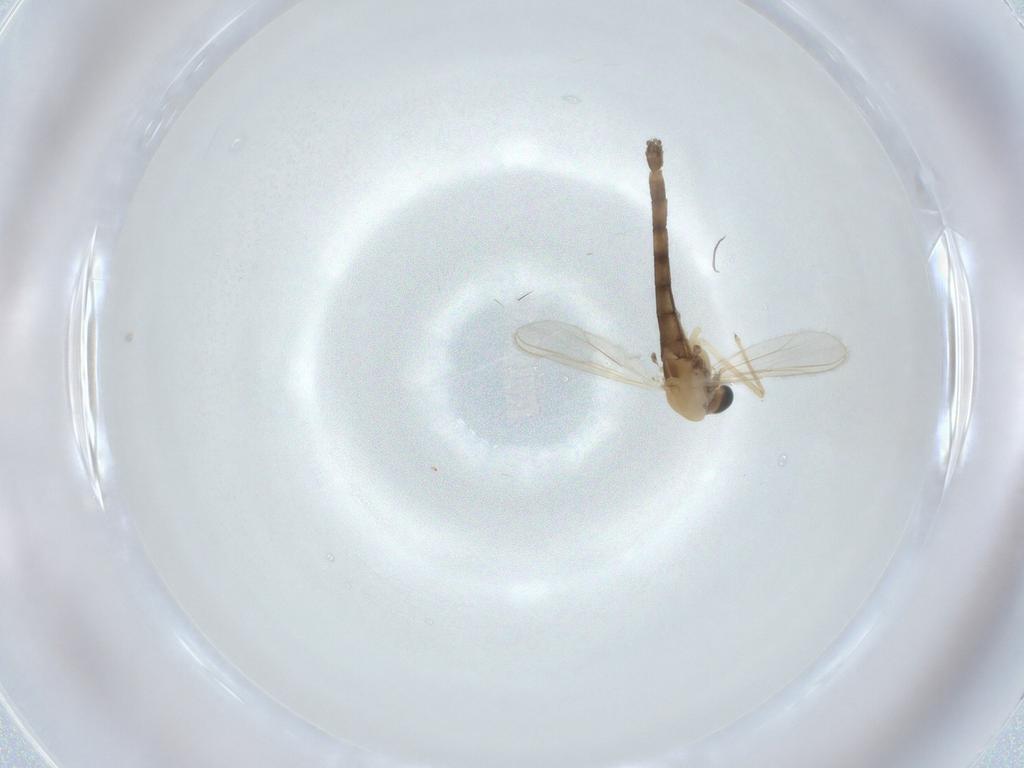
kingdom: Animalia
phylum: Arthropoda
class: Insecta
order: Diptera
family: Chironomidae
